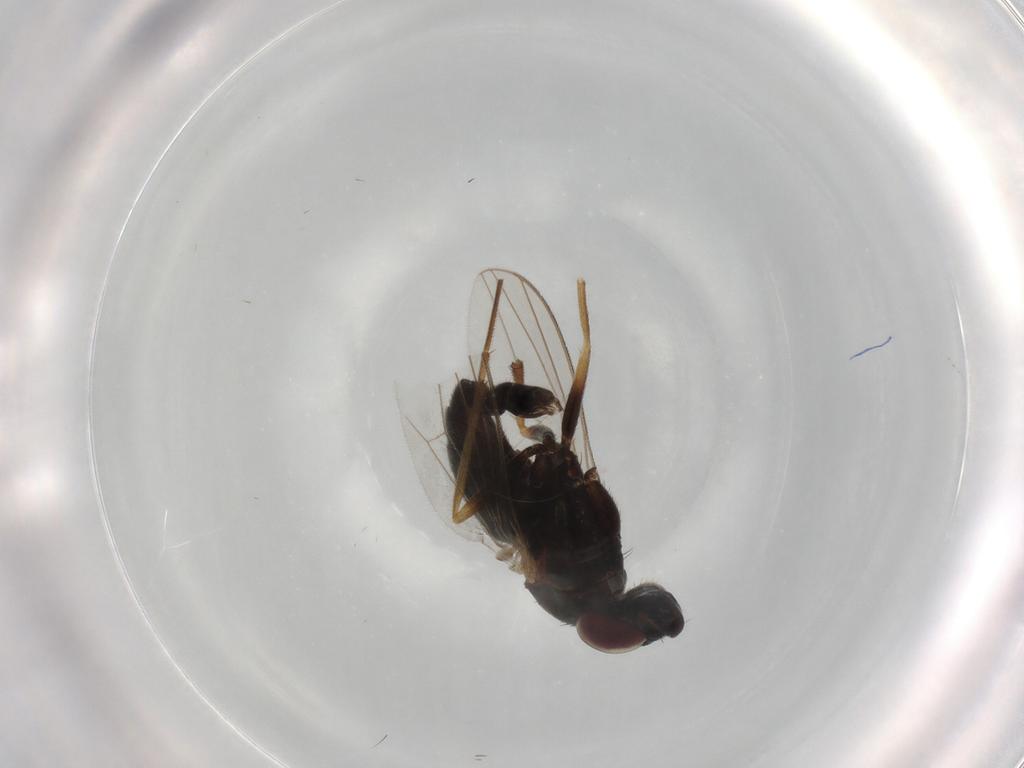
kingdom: Animalia
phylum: Arthropoda
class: Insecta
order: Diptera
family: Dolichopodidae
